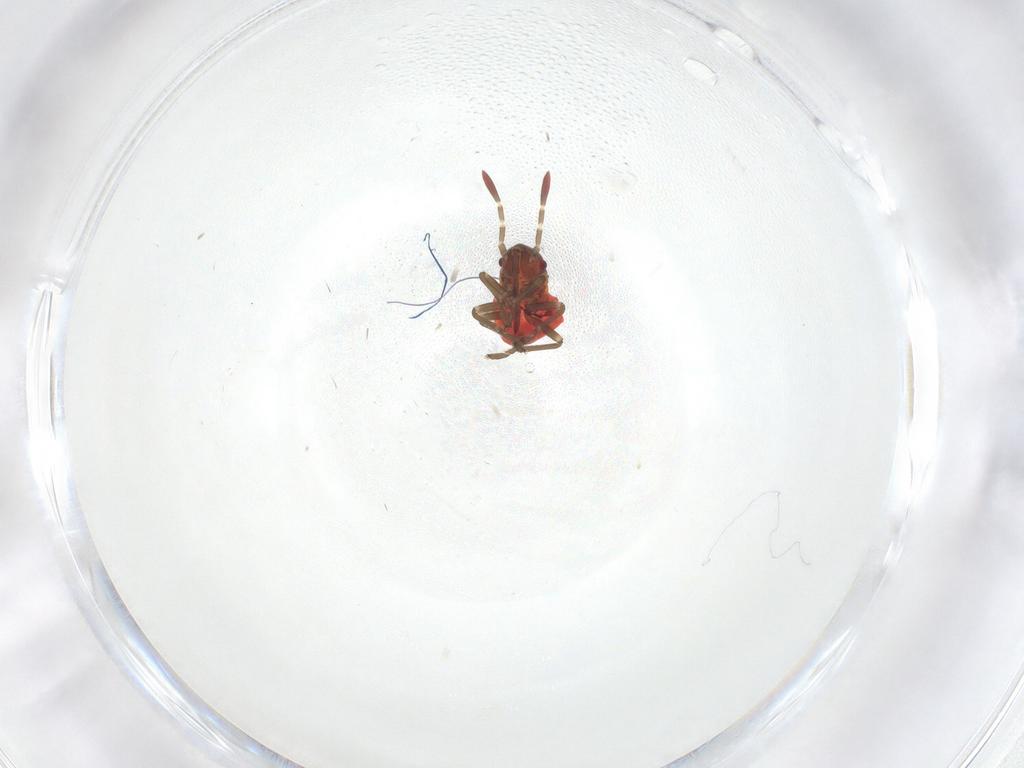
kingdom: Animalia
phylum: Arthropoda
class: Insecta
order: Hemiptera
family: Lygaeidae
